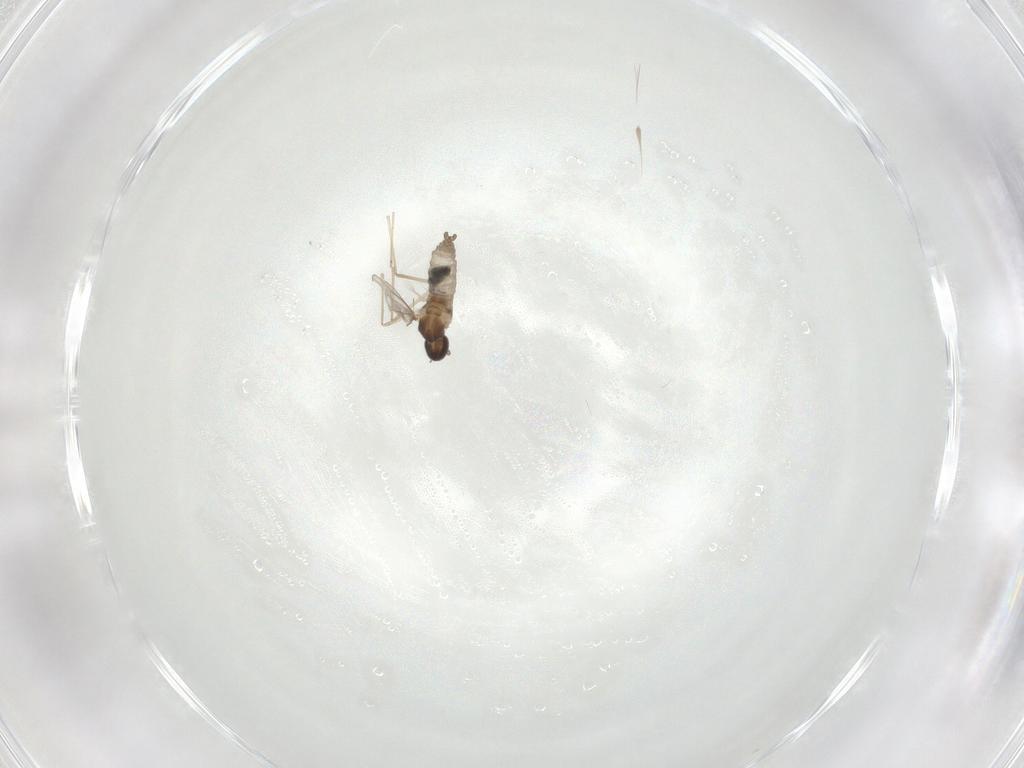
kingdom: Animalia
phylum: Arthropoda
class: Insecta
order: Diptera
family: Cecidomyiidae
